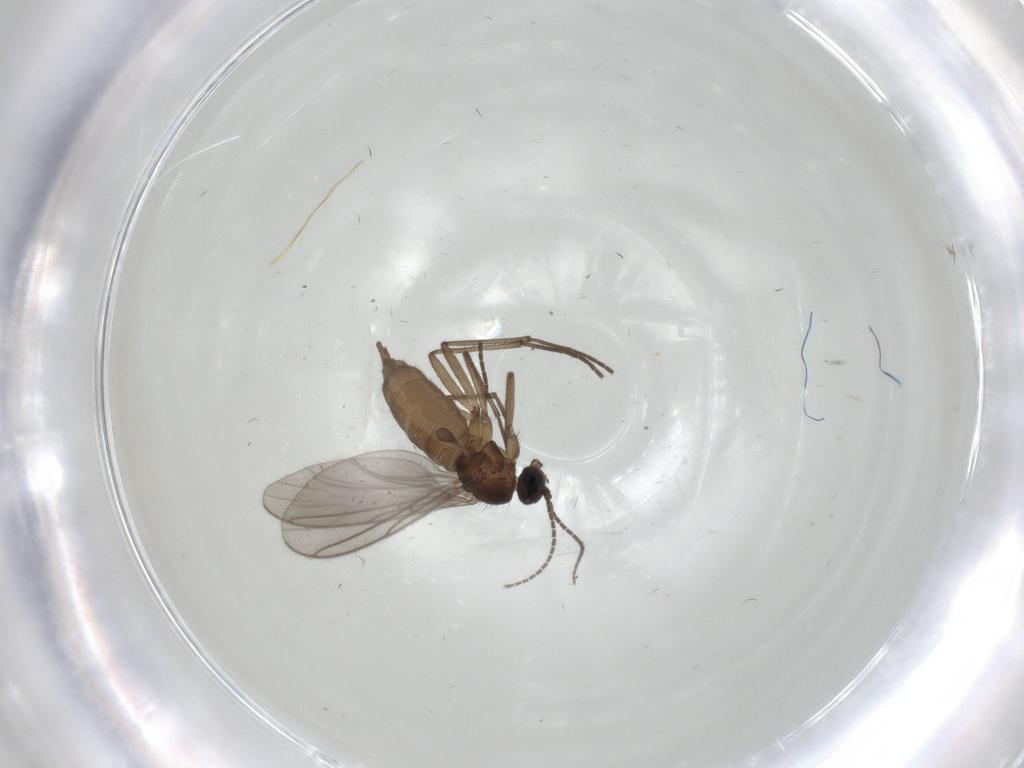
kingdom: Animalia
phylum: Arthropoda
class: Insecta
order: Diptera
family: Sciaridae
